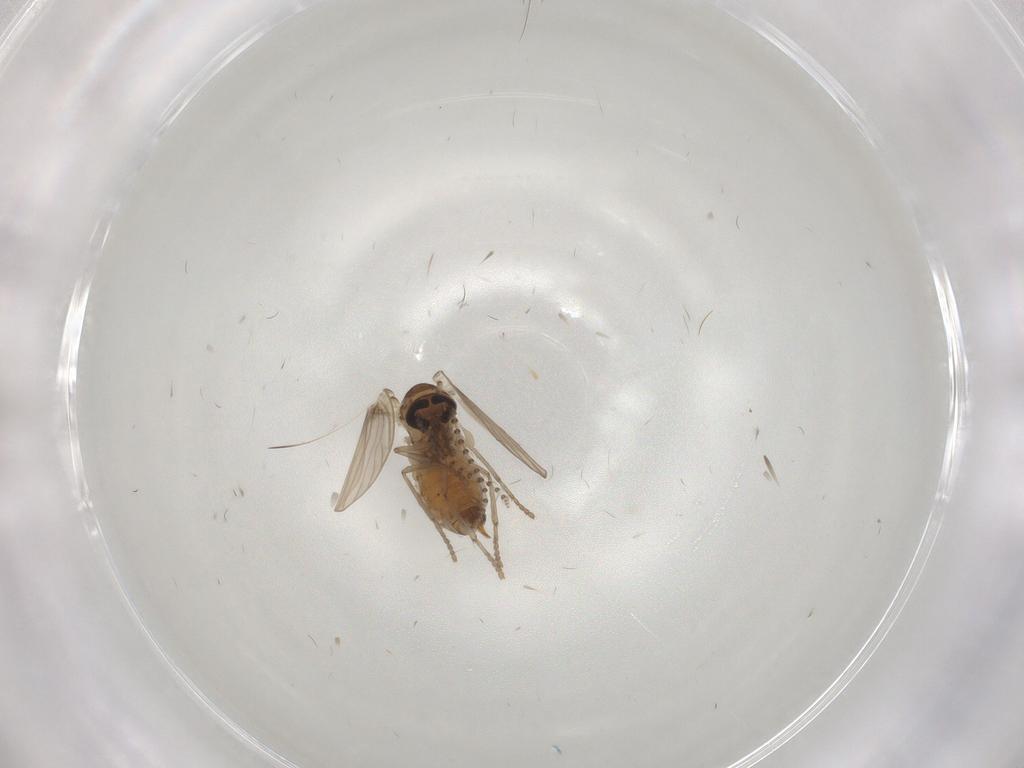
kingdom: Animalia
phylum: Arthropoda
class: Insecta
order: Diptera
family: Psychodidae
